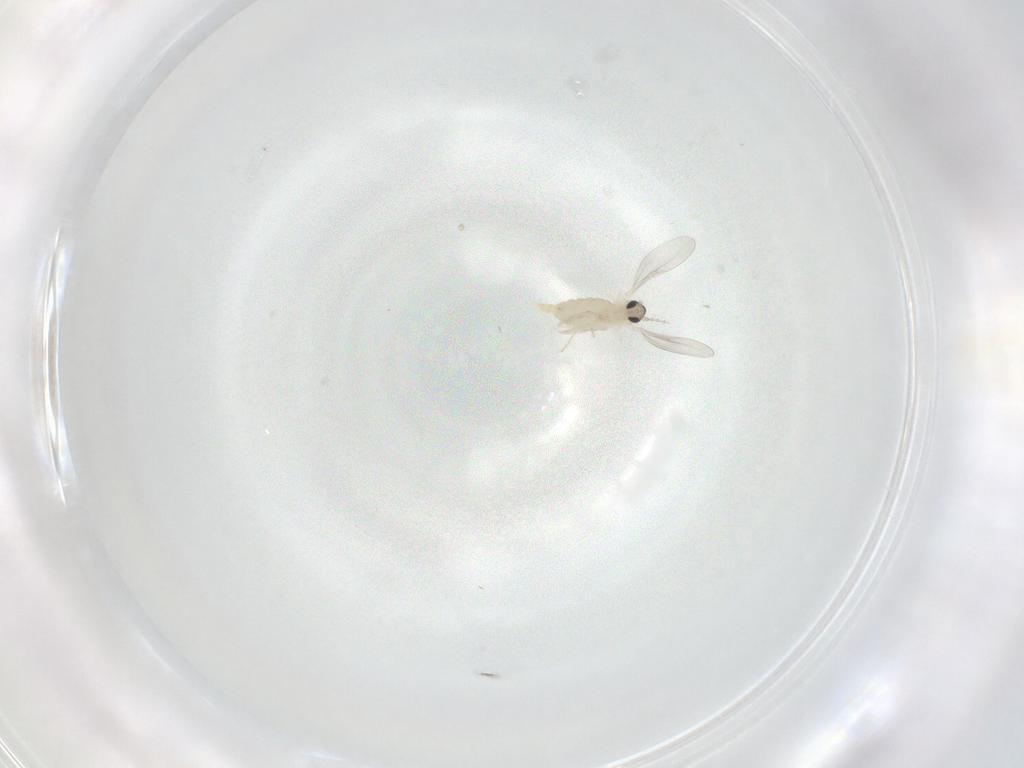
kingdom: Animalia
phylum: Arthropoda
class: Insecta
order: Diptera
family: Cecidomyiidae
